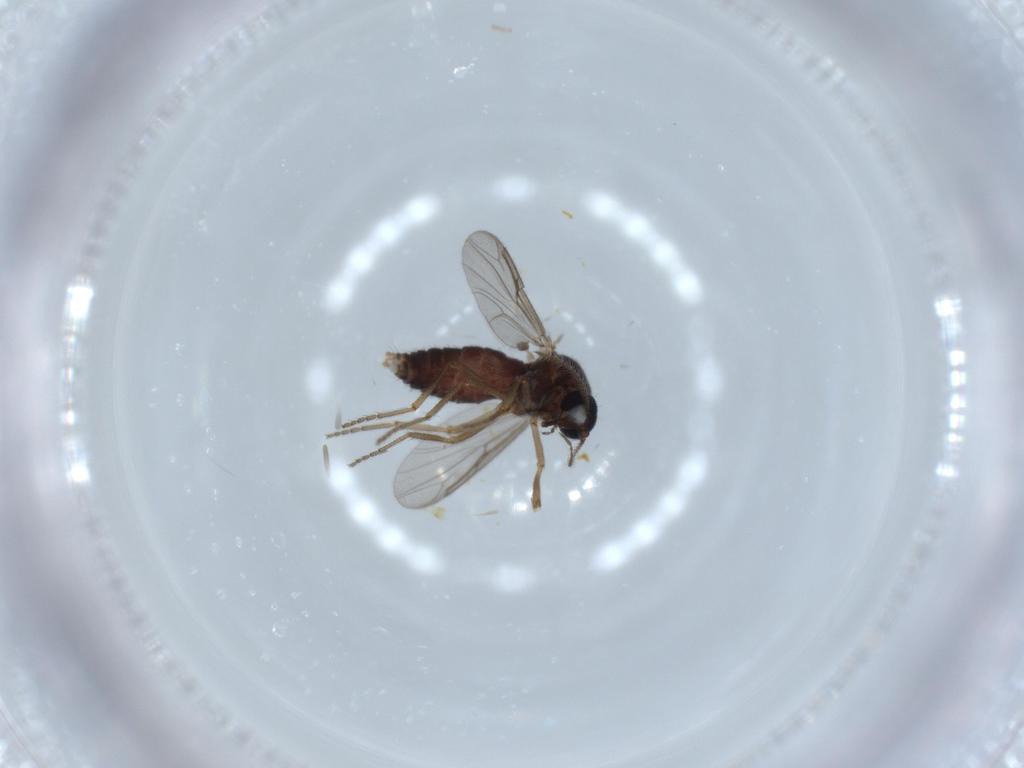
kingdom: Animalia
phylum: Arthropoda
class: Insecta
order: Diptera
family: Ceratopogonidae
